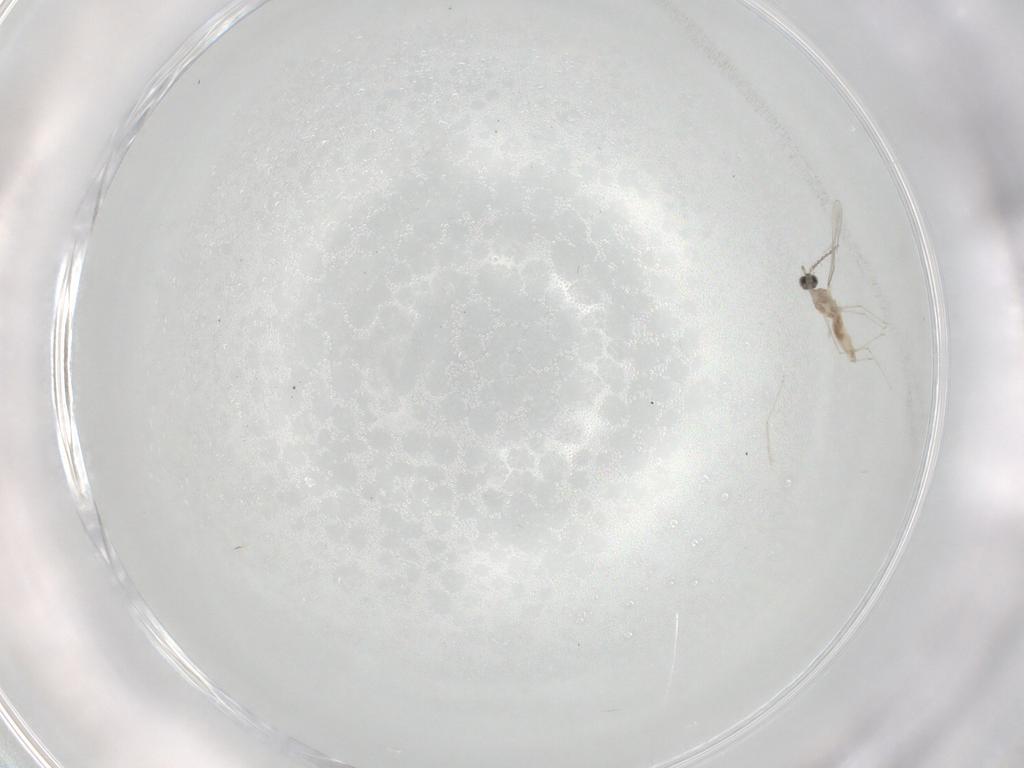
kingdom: Animalia
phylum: Arthropoda
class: Insecta
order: Diptera
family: Cecidomyiidae
